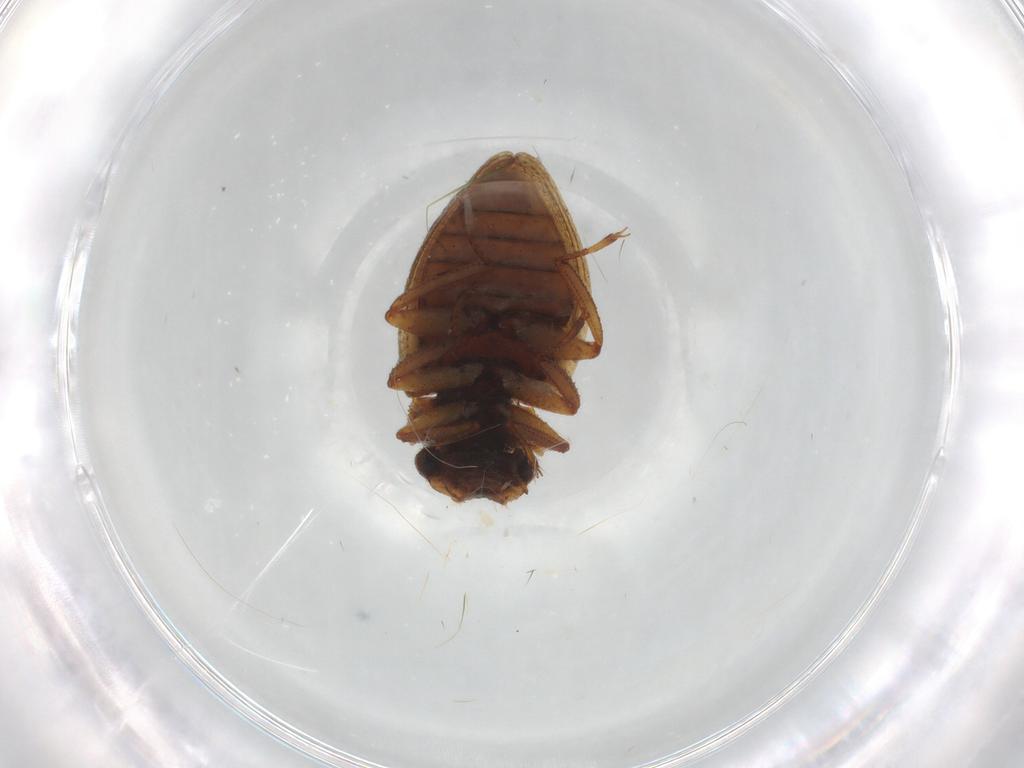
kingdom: Animalia
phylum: Arthropoda
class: Insecta
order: Coleoptera
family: Spercheidae
